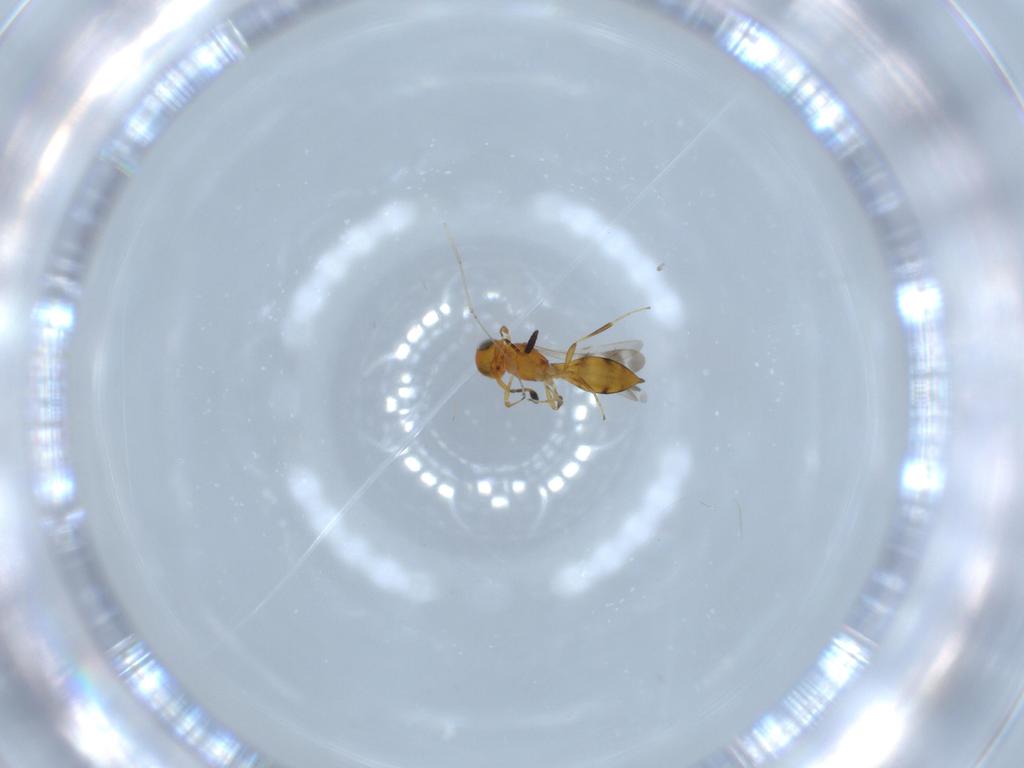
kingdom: Animalia
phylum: Arthropoda
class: Insecta
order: Hymenoptera
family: Scelionidae
